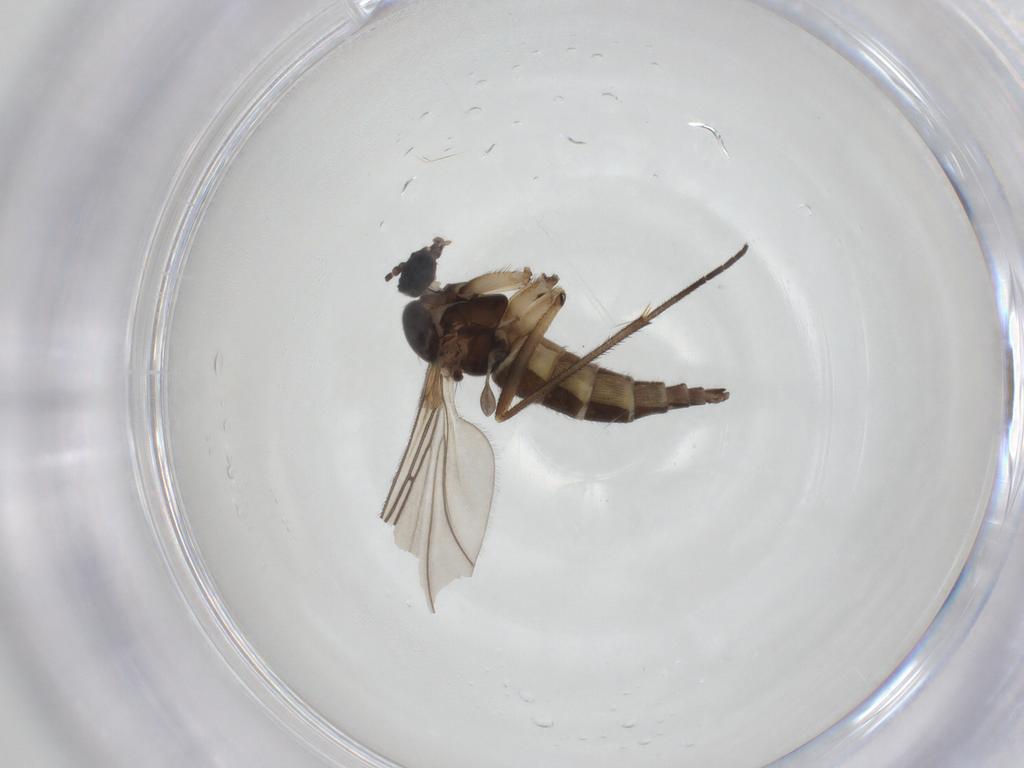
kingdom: Animalia
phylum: Arthropoda
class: Insecta
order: Diptera
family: Sciaridae
